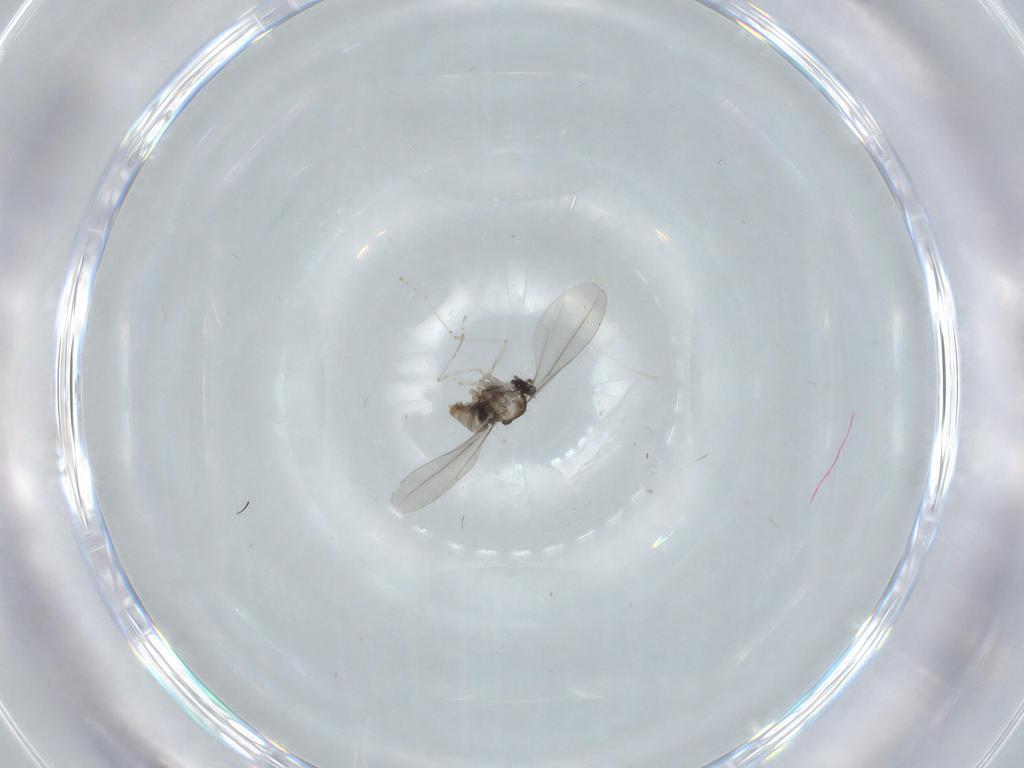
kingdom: Animalia
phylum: Arthropoda
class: Insecta
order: Diptera
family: Cecidomyiidae
